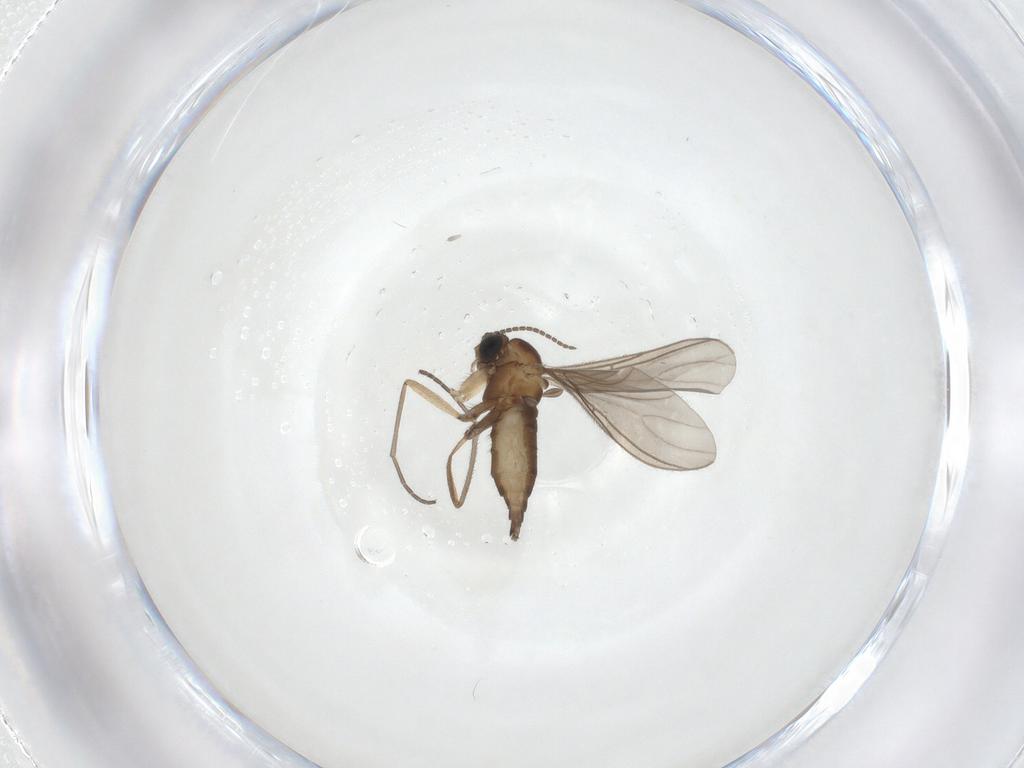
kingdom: Animalia
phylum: Arthropoda
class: Insecta
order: Diptera
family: Sciaridae
